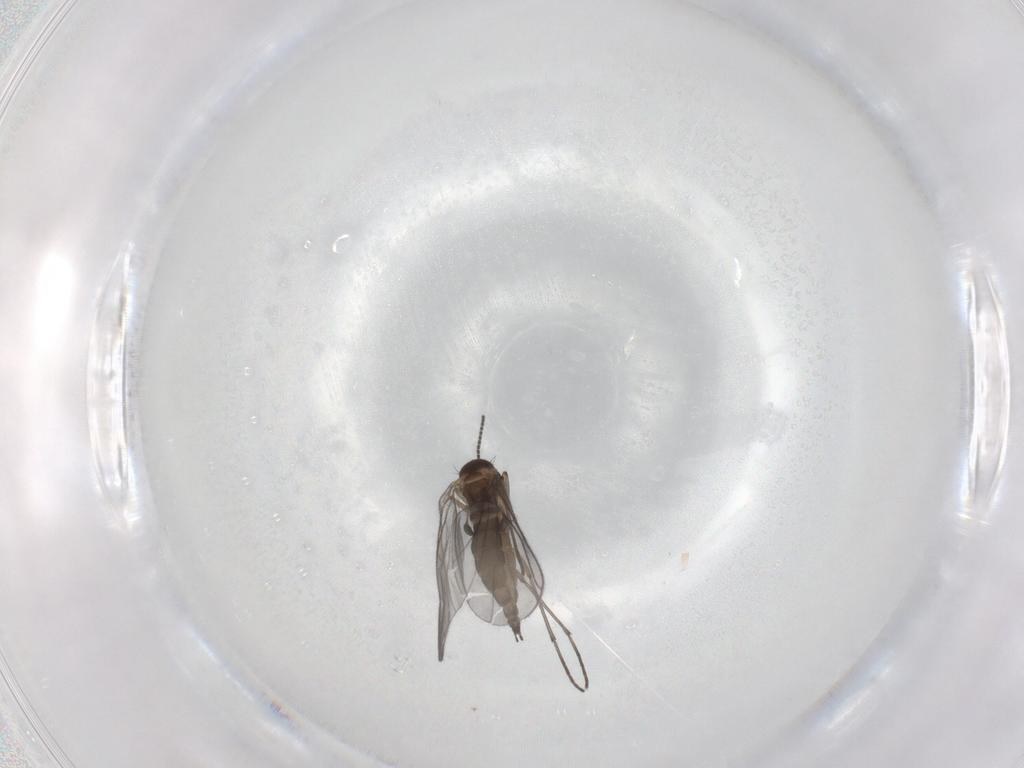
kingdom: Animalia
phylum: Arthropoda
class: Insecta
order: Diptera
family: Sciaridae
